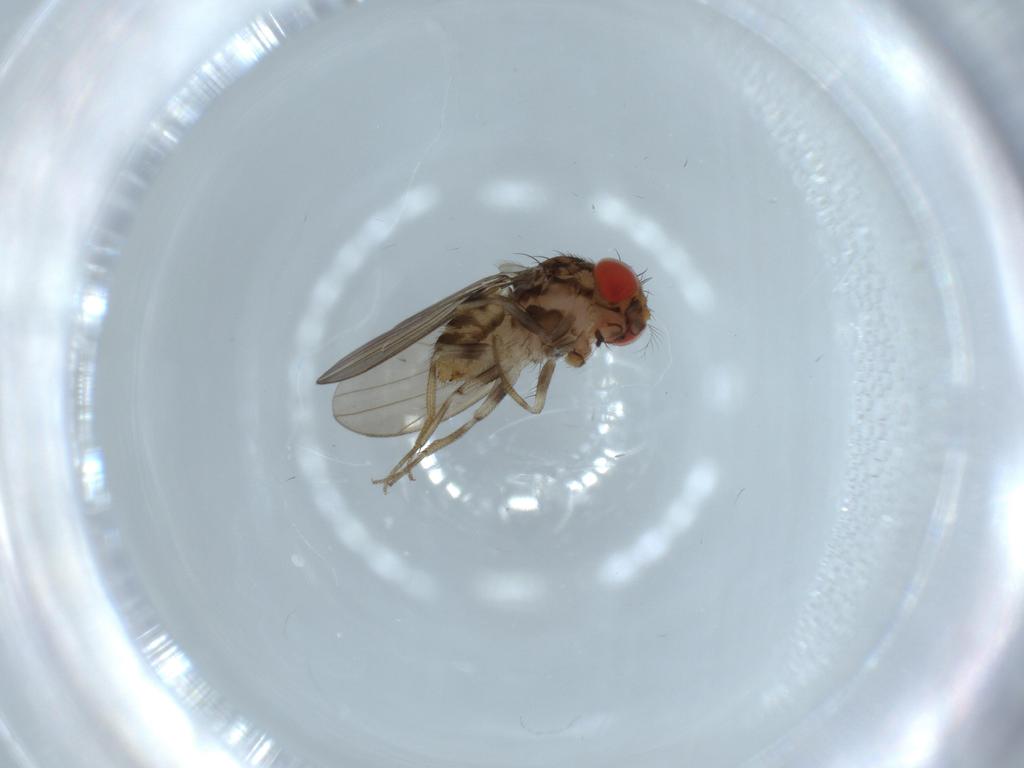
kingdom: Animalia
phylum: Arthropoda
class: Insecta
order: Diptera
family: Drosophilidae
